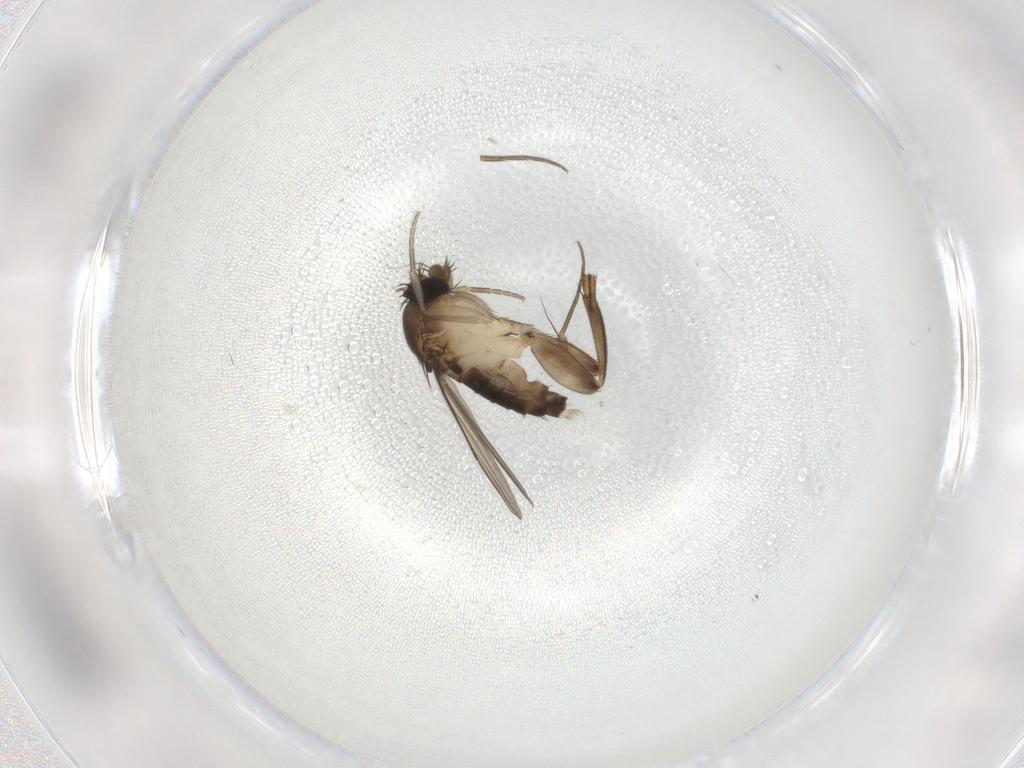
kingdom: Animalia
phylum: Arthropoda
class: Insecta
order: Diptera
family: Phoridae
